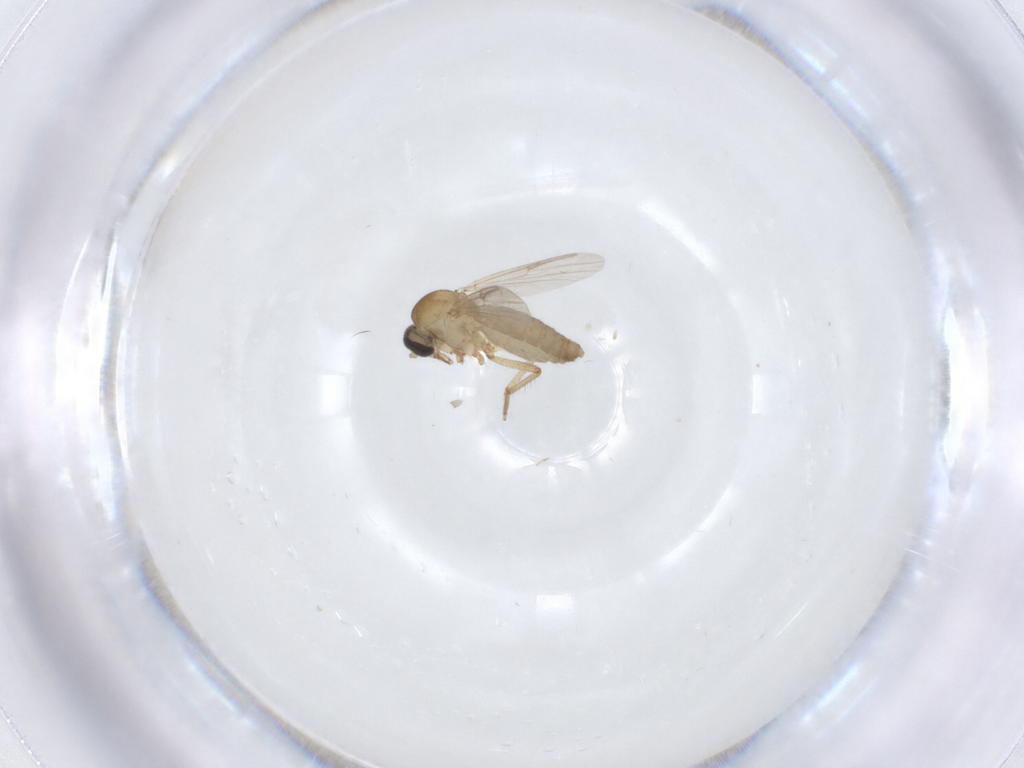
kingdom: Animalia
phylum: Arthropoda
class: Insecta
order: Diptera
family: Ceratopogonidae
